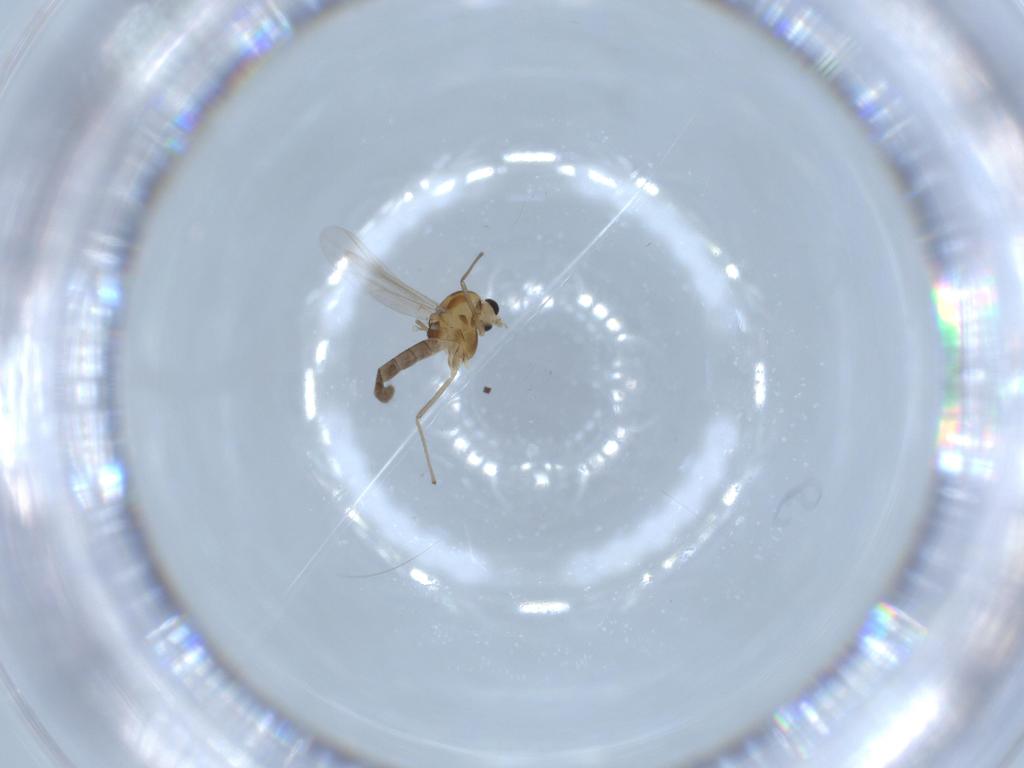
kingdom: Animalia
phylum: Arthropoda
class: Insecta
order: Diptera
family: Chironomidae
